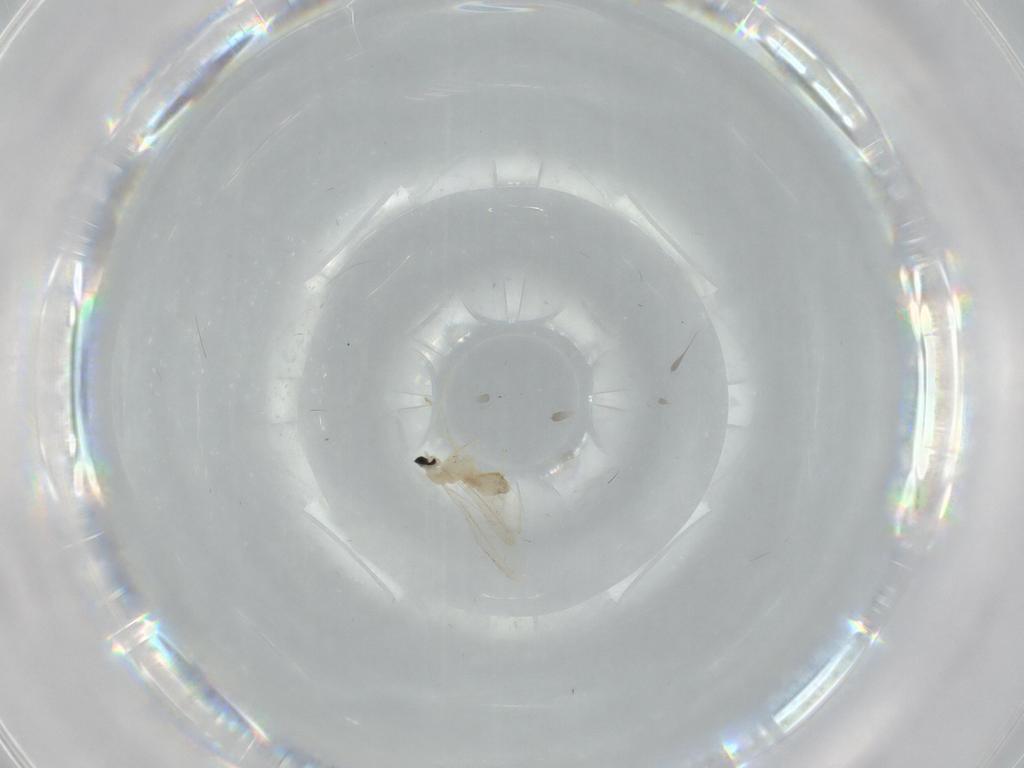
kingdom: Animalia
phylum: Arthropoda
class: Insecta
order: Diptera
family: Cecidomyiidae
